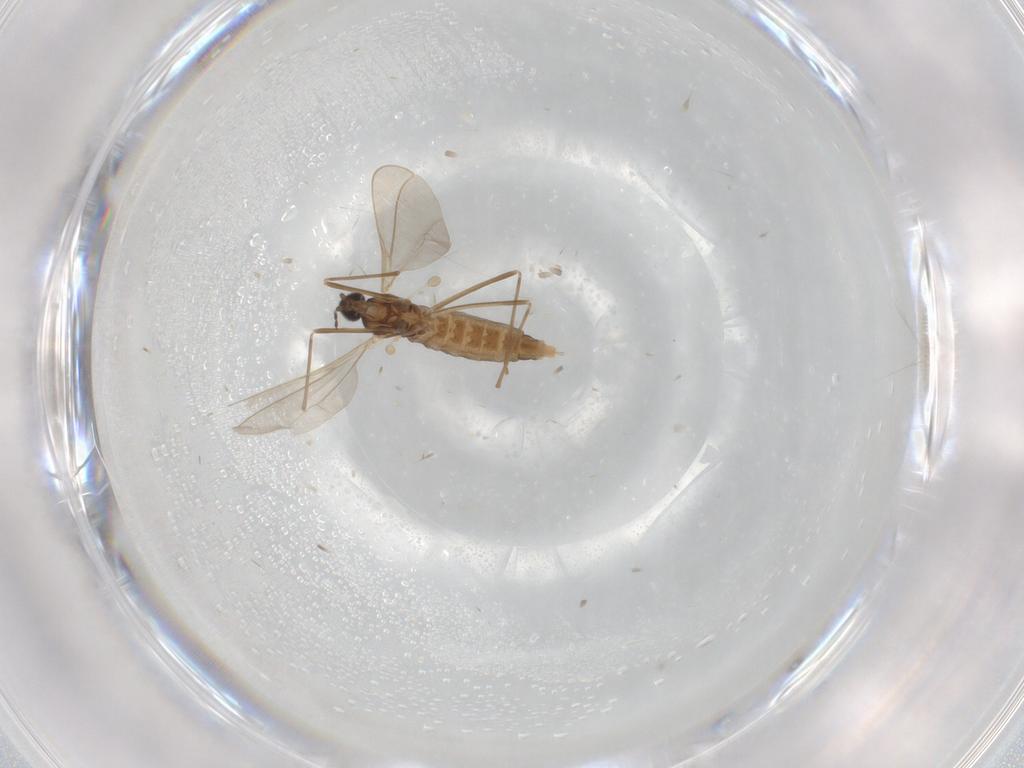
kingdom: Animalia
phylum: Arthropoda
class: Insecta
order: Diptera
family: Cecidomyiidae
